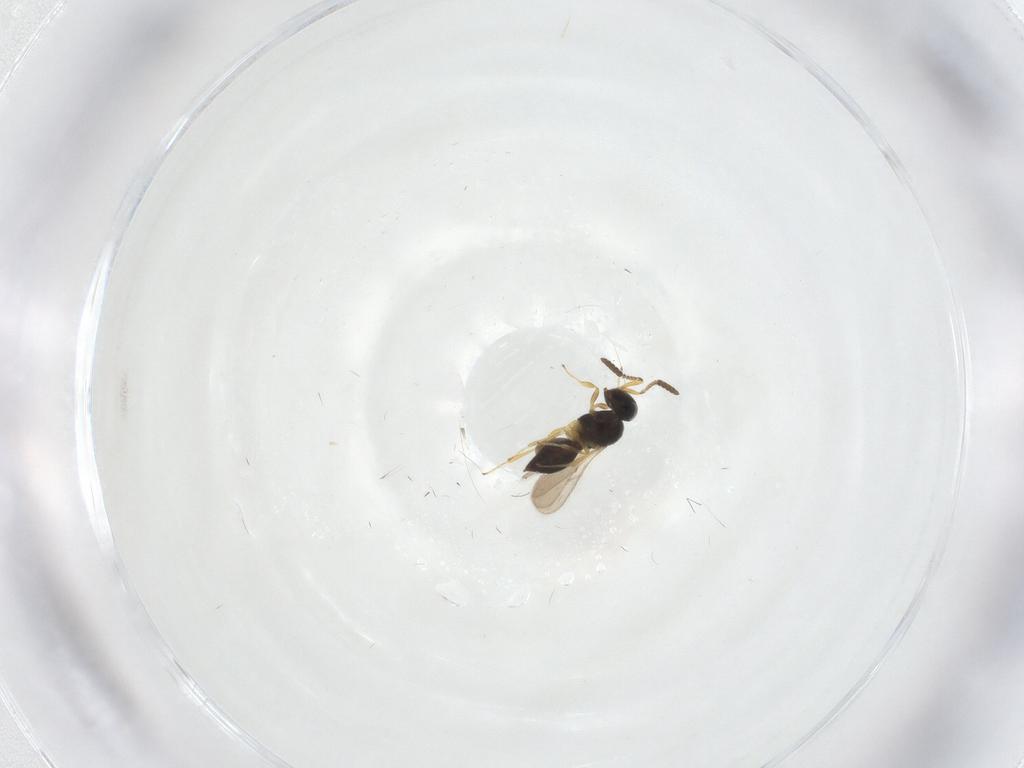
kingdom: Animalia
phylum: Arthropoda
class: Insecta
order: Hymenoptera
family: Scelionidae
